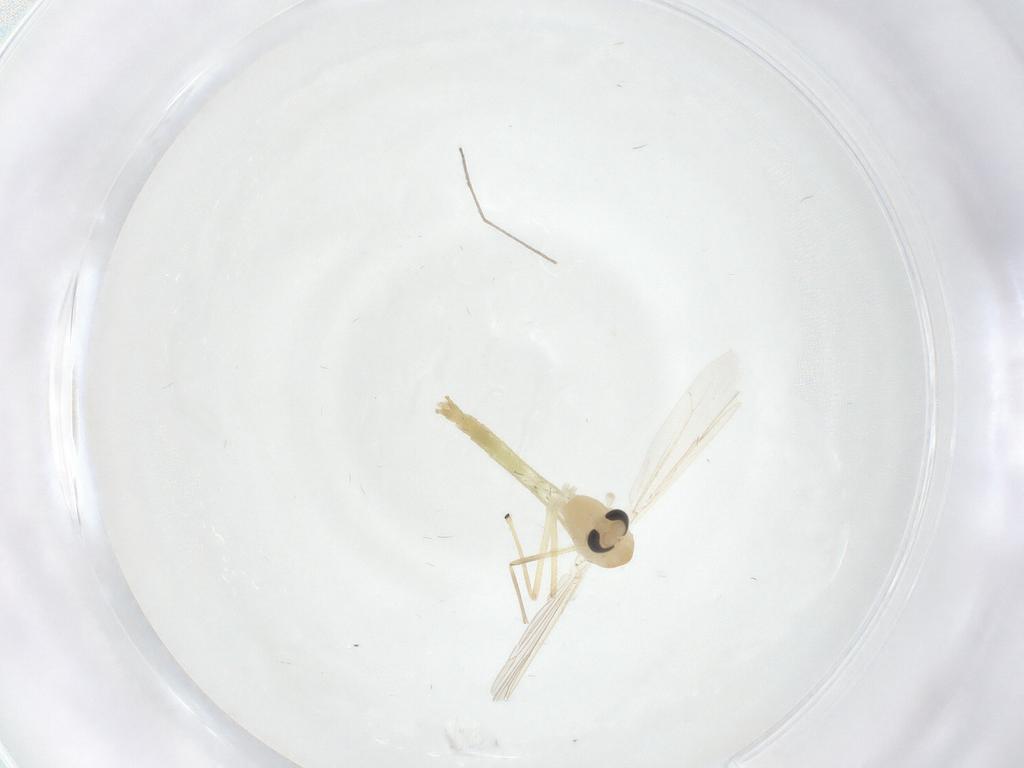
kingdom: Animalia
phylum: Arthropoda
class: Insecta
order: Diptera
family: Chironomidae
